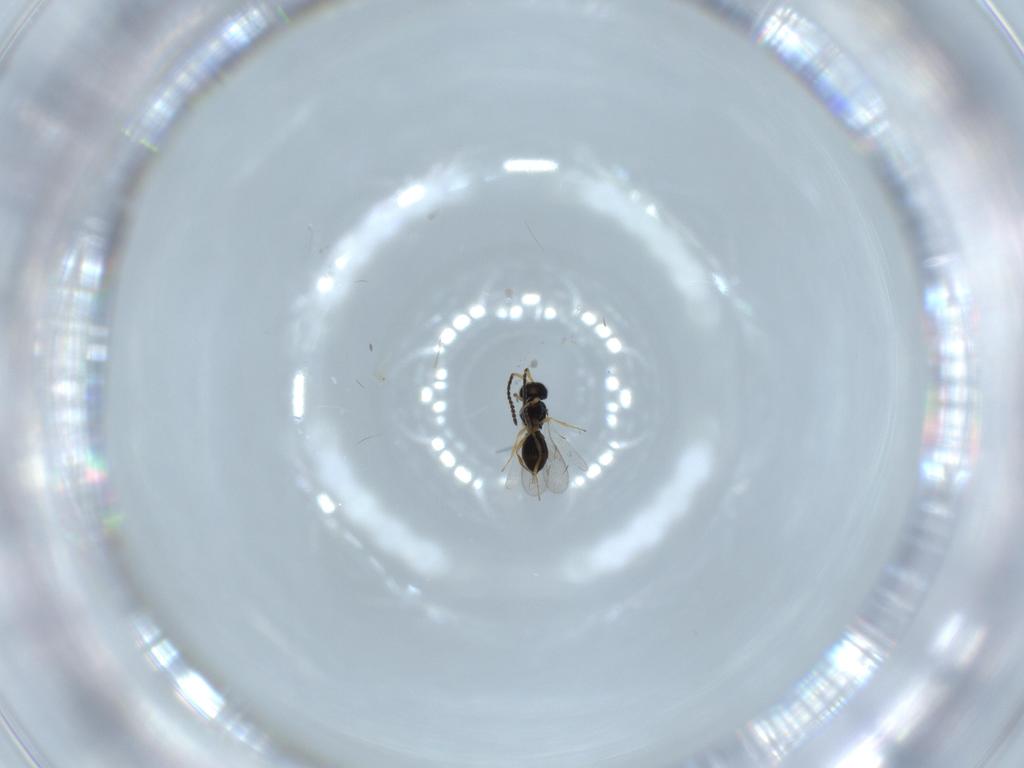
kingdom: Animalia
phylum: Arthropoda
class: Insecta
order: Hymenoptera
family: Scelionidae
